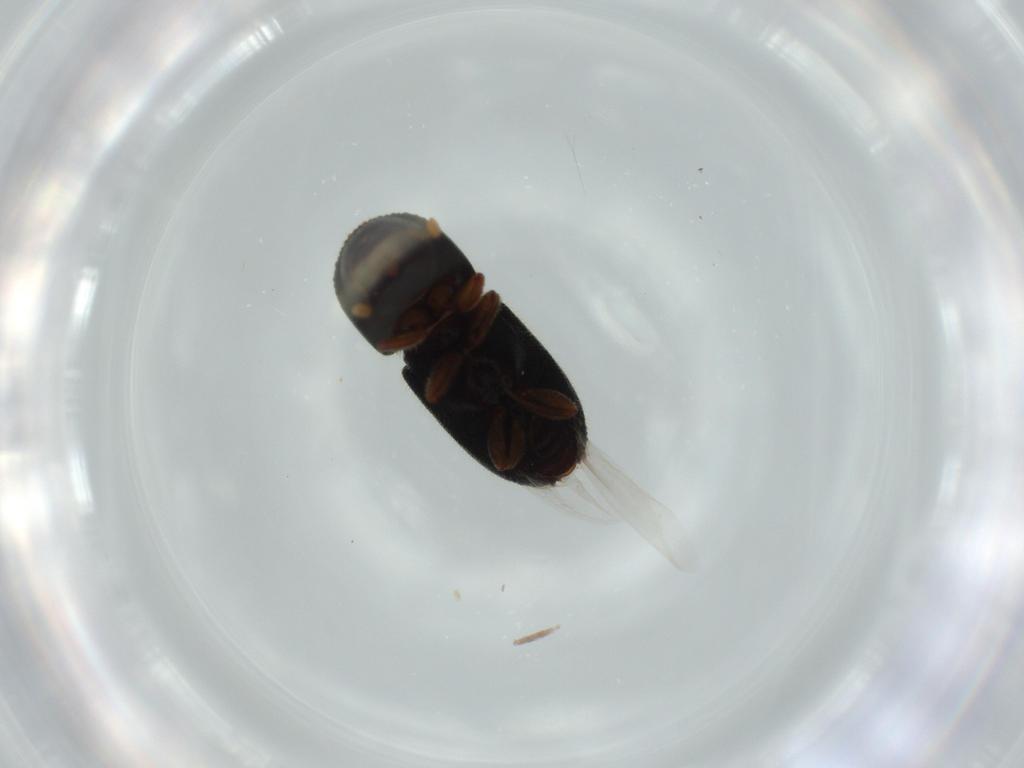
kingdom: Animalia
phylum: Arthropoda
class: Insecta
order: Coleoptera
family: Curculionidae
